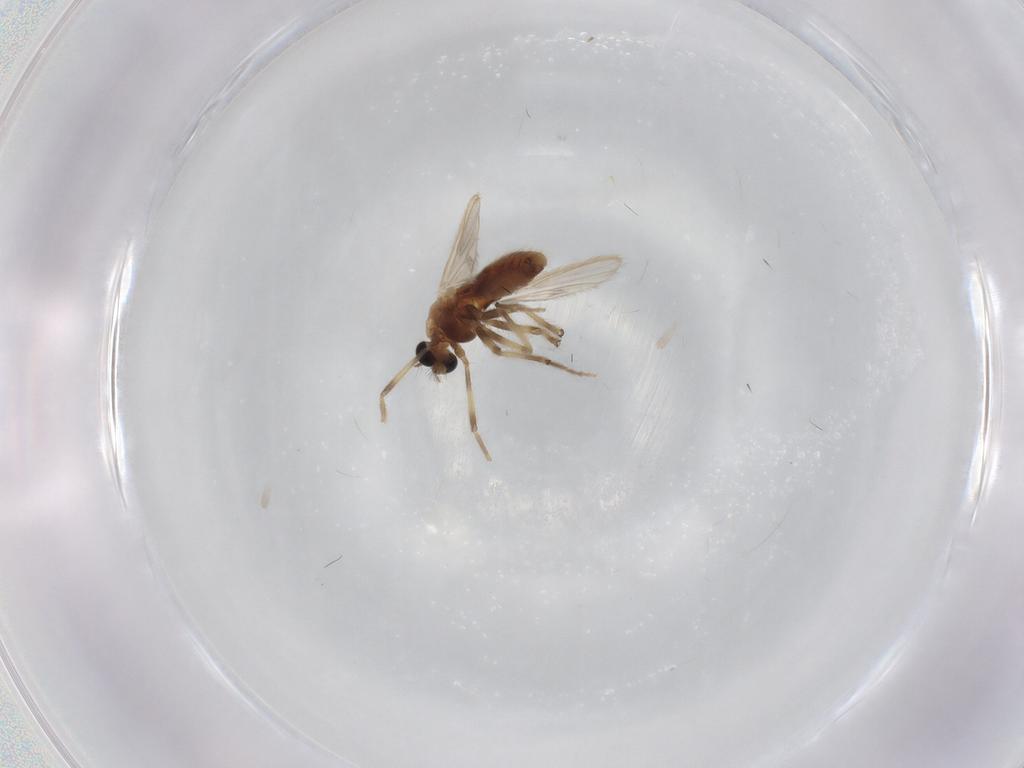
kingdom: Animalia
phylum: Arthropoda
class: Insecta
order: Diptera
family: Chironomidae
